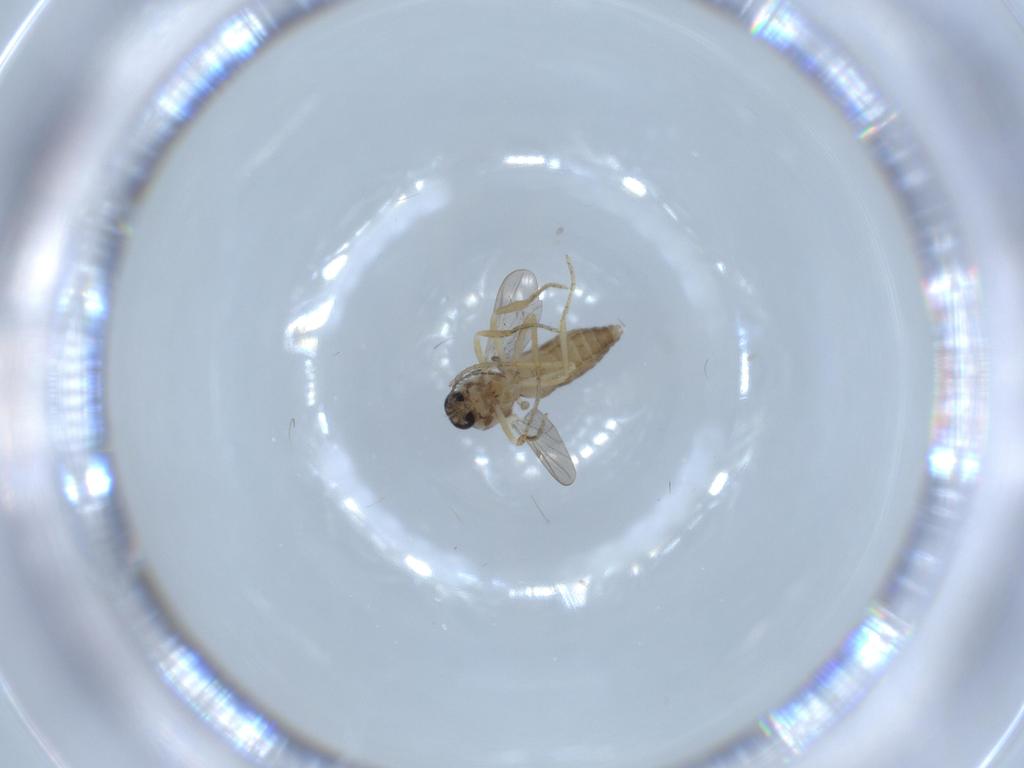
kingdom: Animalia
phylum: Arthropoda
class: Insecta
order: Diptera
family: Ceratopogonidae
